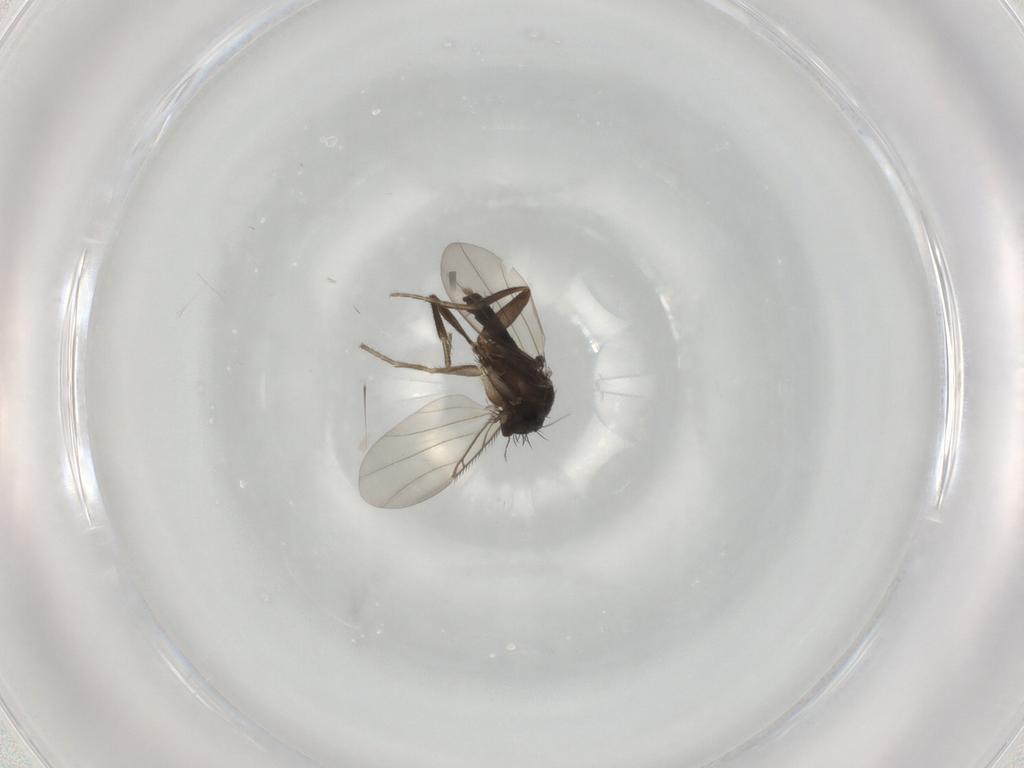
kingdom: Animalia
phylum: Arthropoda
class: Insecta
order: Diptera
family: Phoridae
